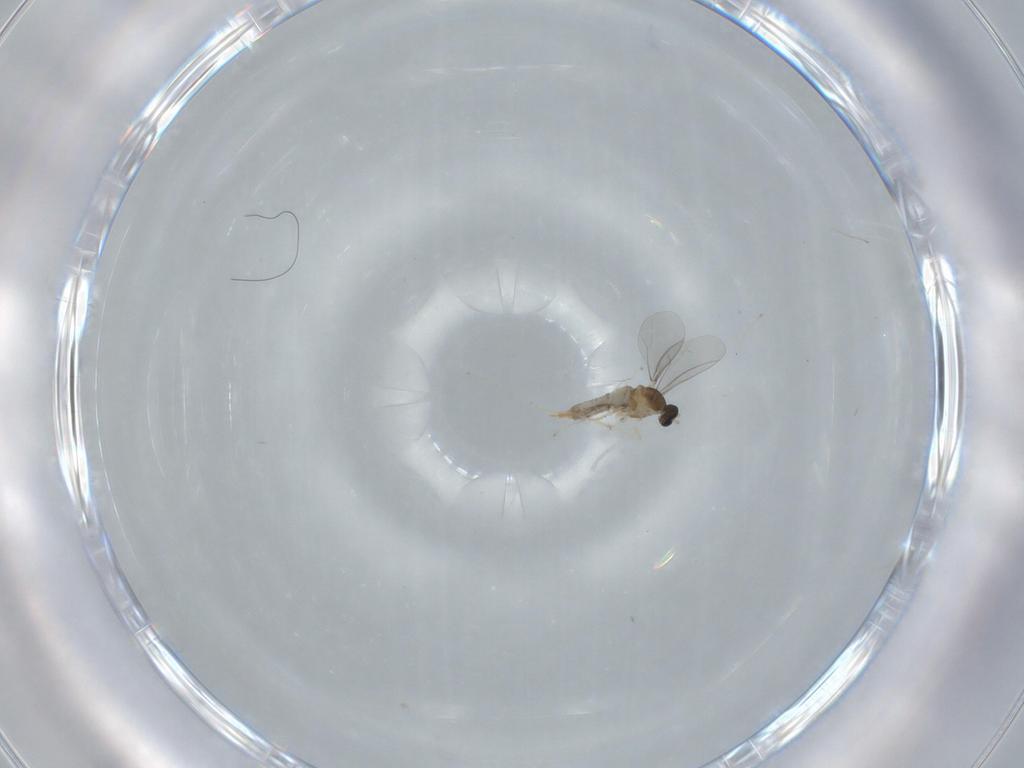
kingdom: Animalia
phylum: Arthropoda
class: Insecta
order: Diptera
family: Cecidomyiidae
